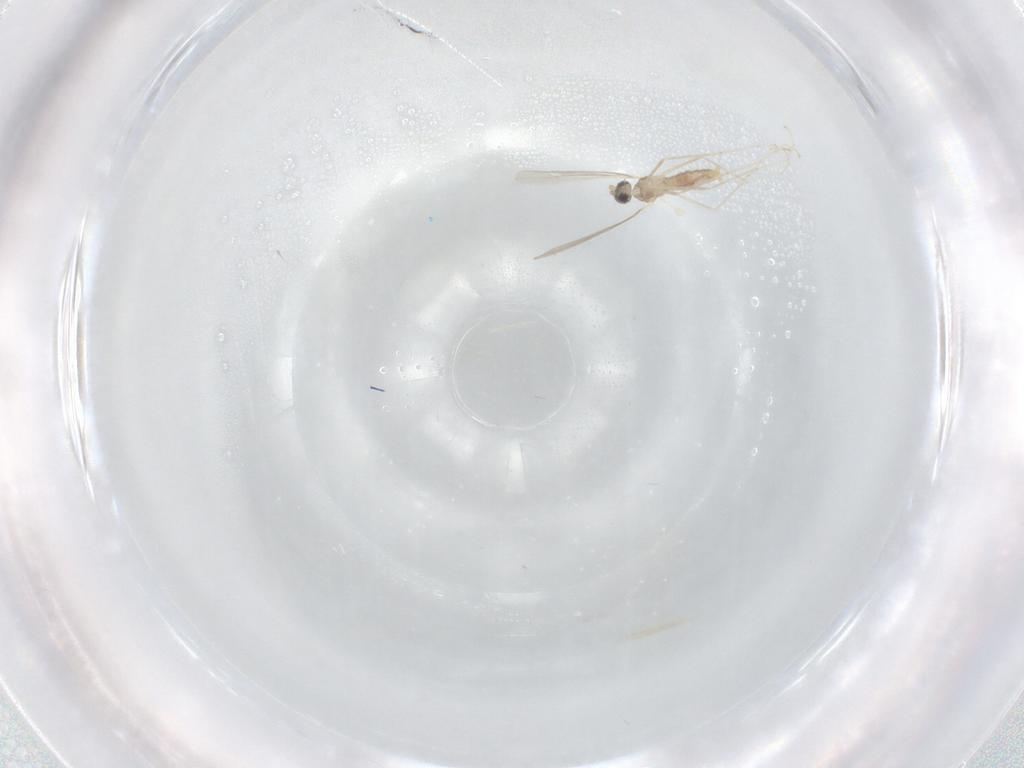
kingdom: Animalia
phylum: Arthropoda
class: Insecta
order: Diptera
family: Cecidomyiidae
